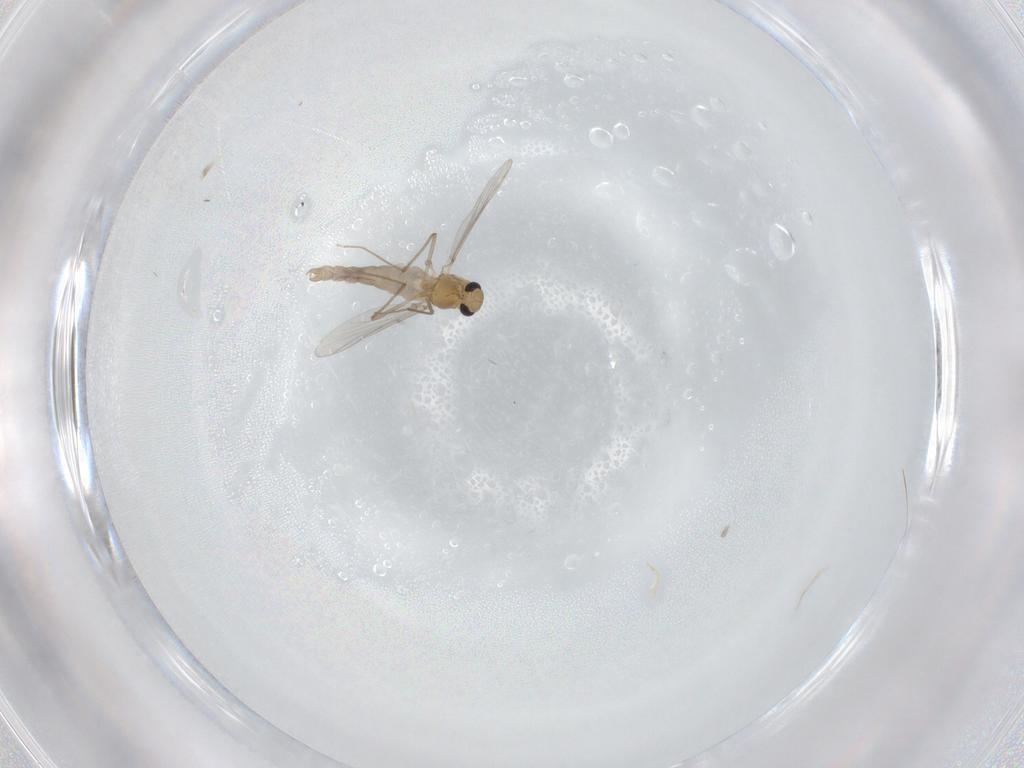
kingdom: Animalia
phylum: Arthropoda
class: Insecta
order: Diptera
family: Chironomidae
